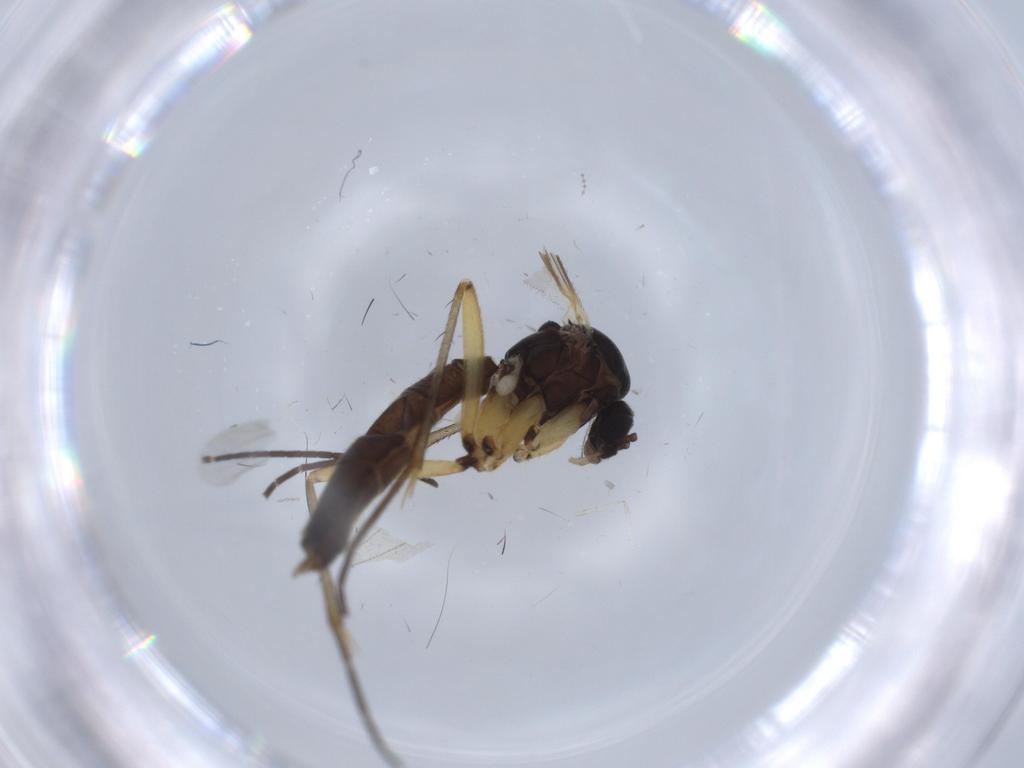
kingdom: Animalia
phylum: Arthropoda
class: Insecta
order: Diptera
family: Chironomidae
